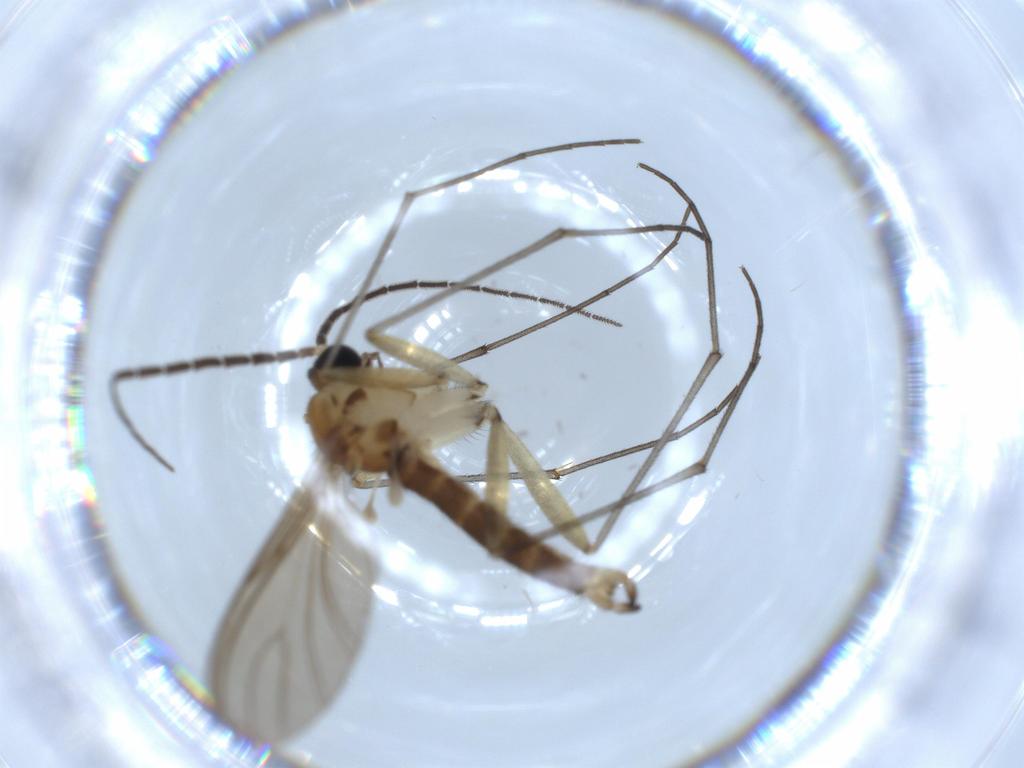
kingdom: Animalia
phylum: Arthropoda
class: Insecta
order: Diptera
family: Sciaridae
